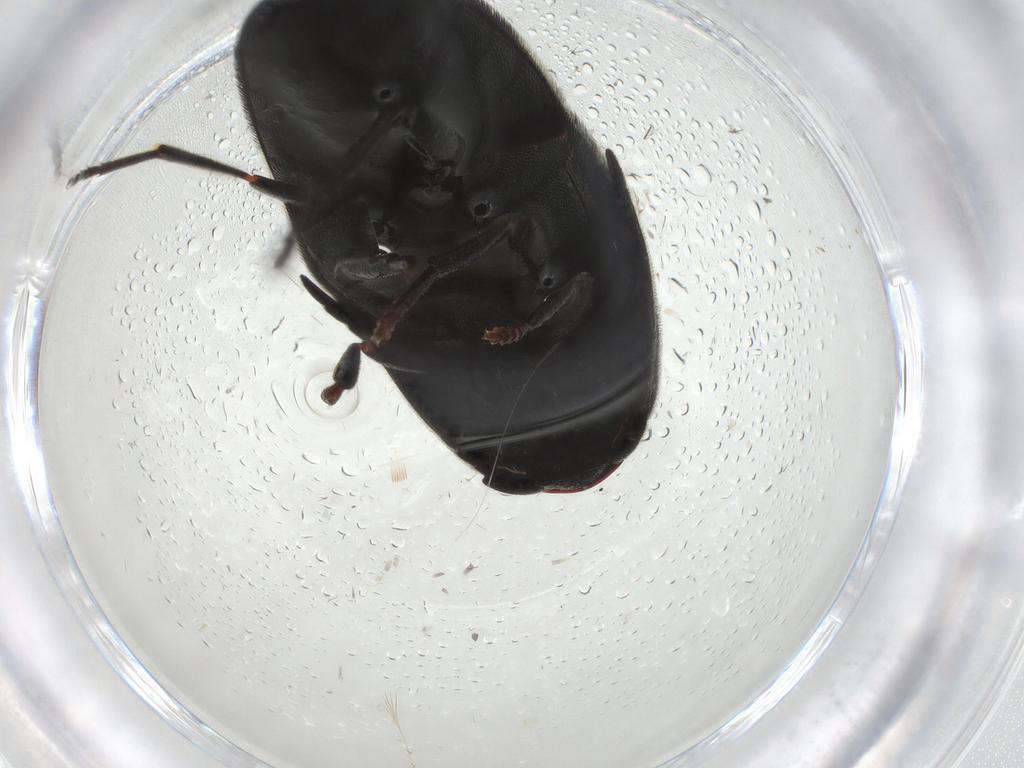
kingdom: Animalia
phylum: Arthropoda
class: Insecta
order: Coleoptera
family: Eucnemidae
